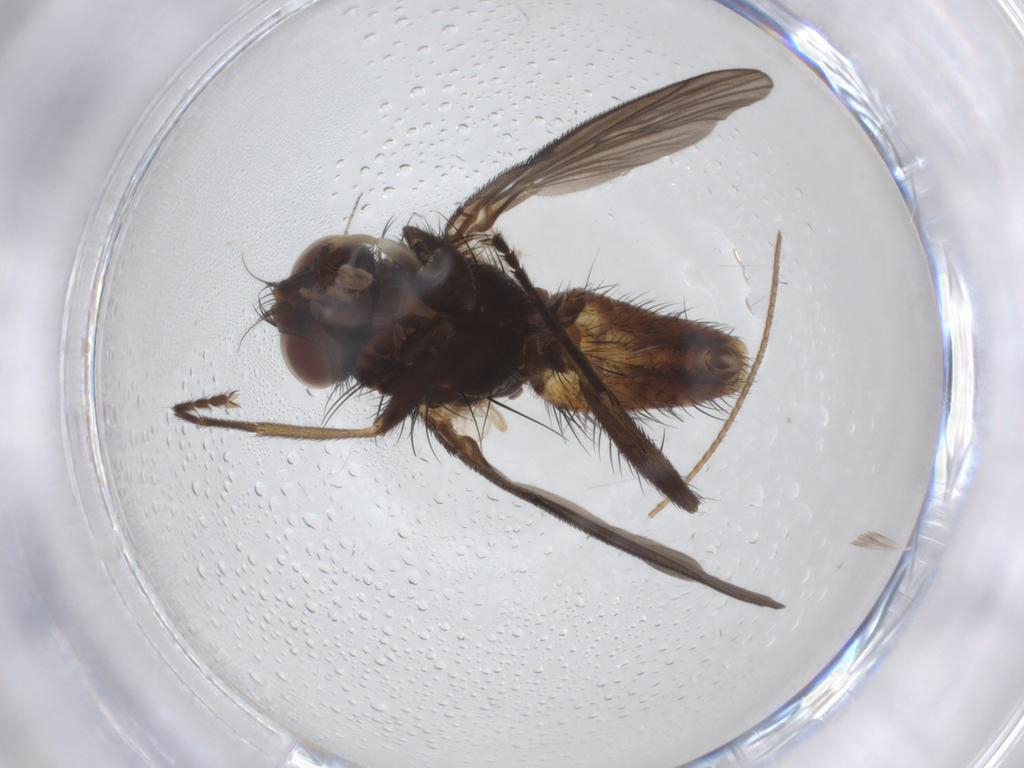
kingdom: Animalia
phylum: Arthropoda
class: Insecta
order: Diptera
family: Muscidae
